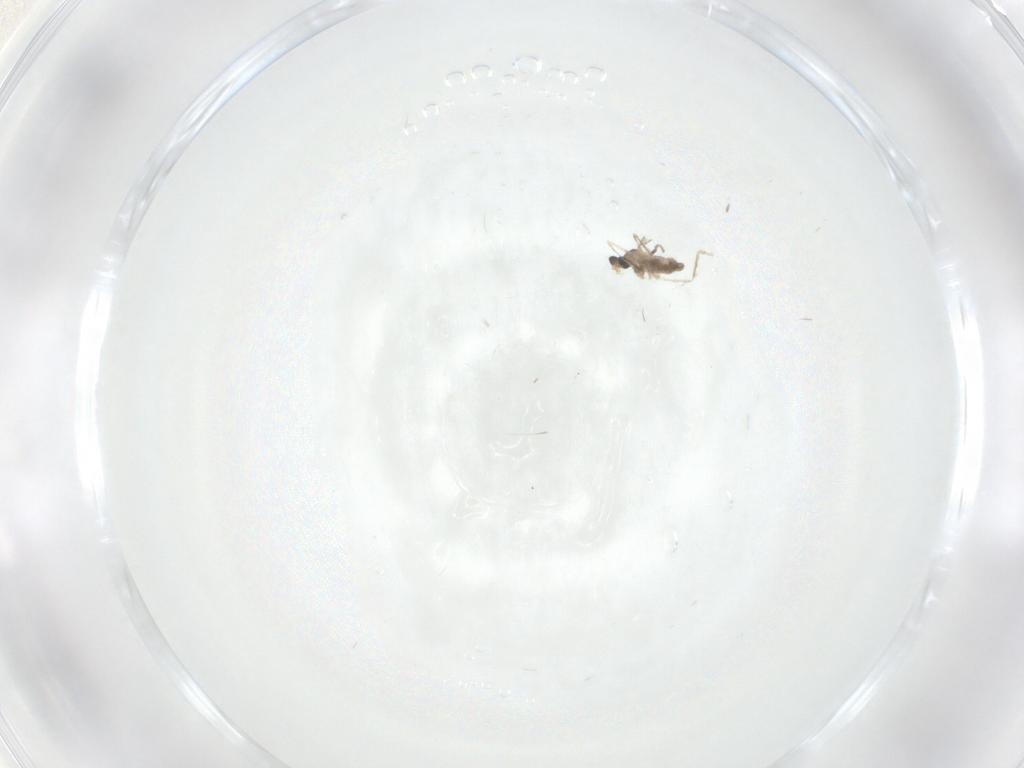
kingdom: Animalia
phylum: Arthropoda
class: Insecta
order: Diptera
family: Cecidomyiidae
